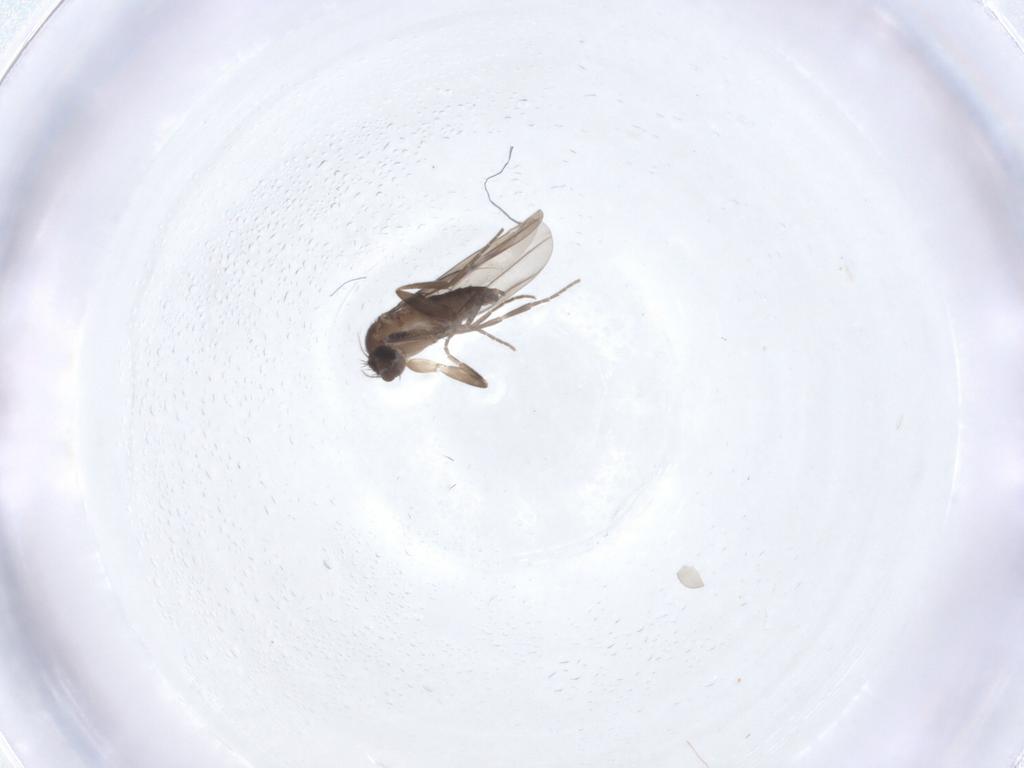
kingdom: Animalia
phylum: Arthropoda
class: Insecta
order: Diptera
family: Phoridae
